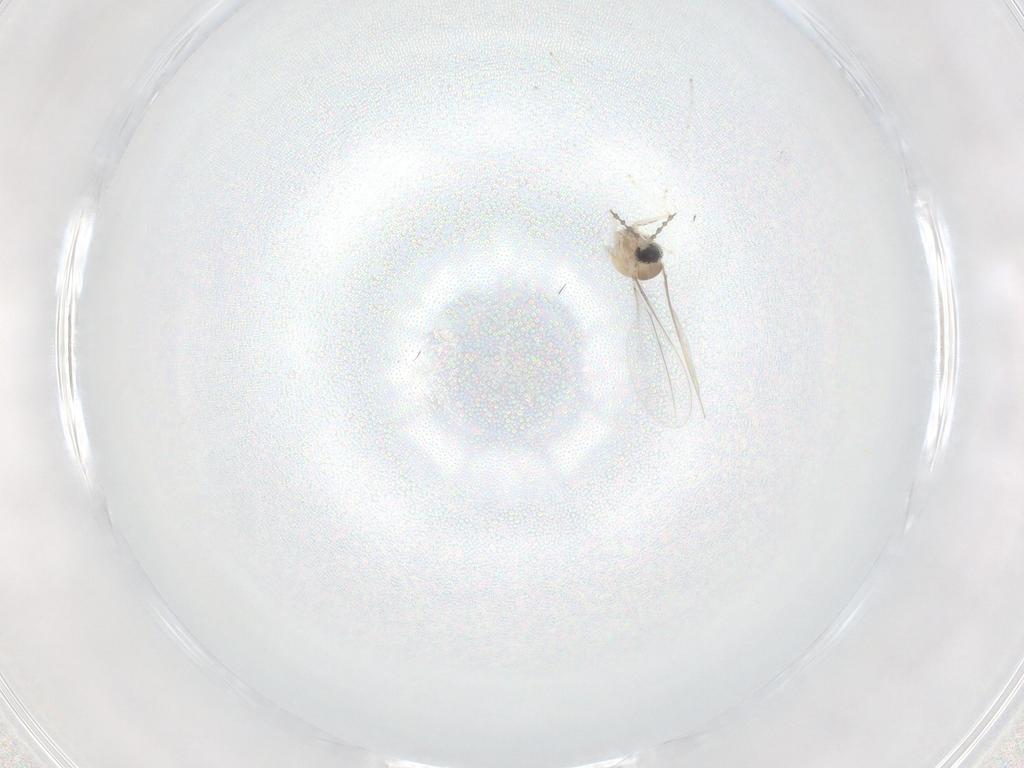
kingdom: Animalia
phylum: Arthropoda
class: Insecta
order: Diptera
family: Cecidomyiidae
